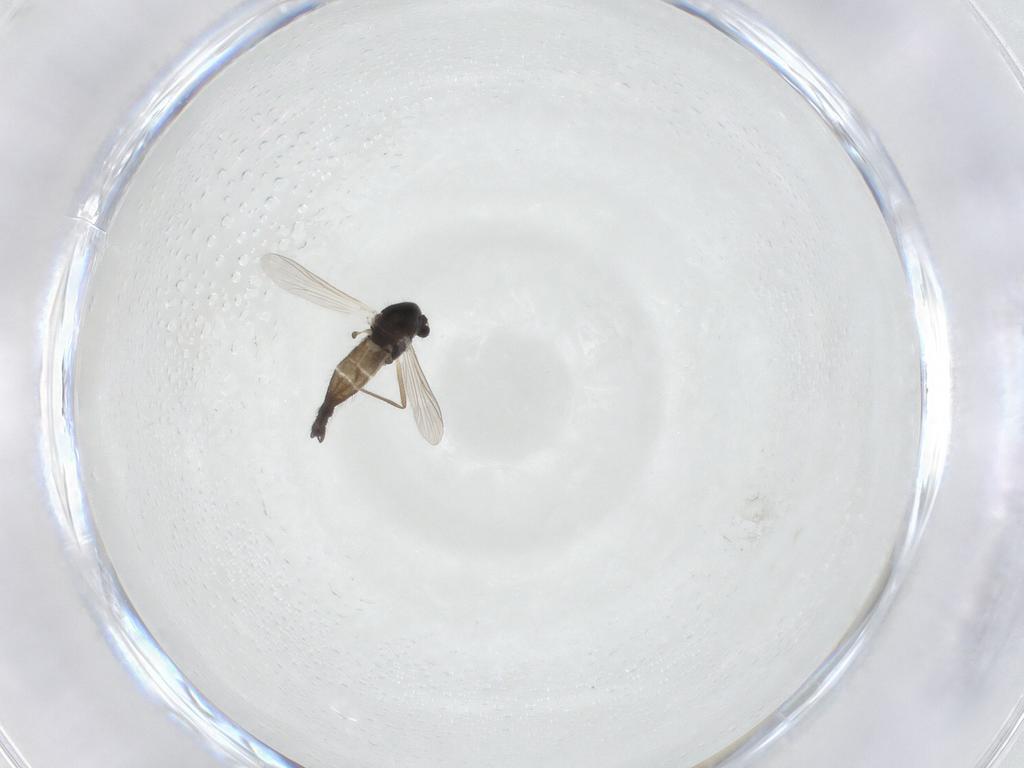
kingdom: Animalia
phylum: Arthropoda
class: Insecta
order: Diptera
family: Chironomidae
